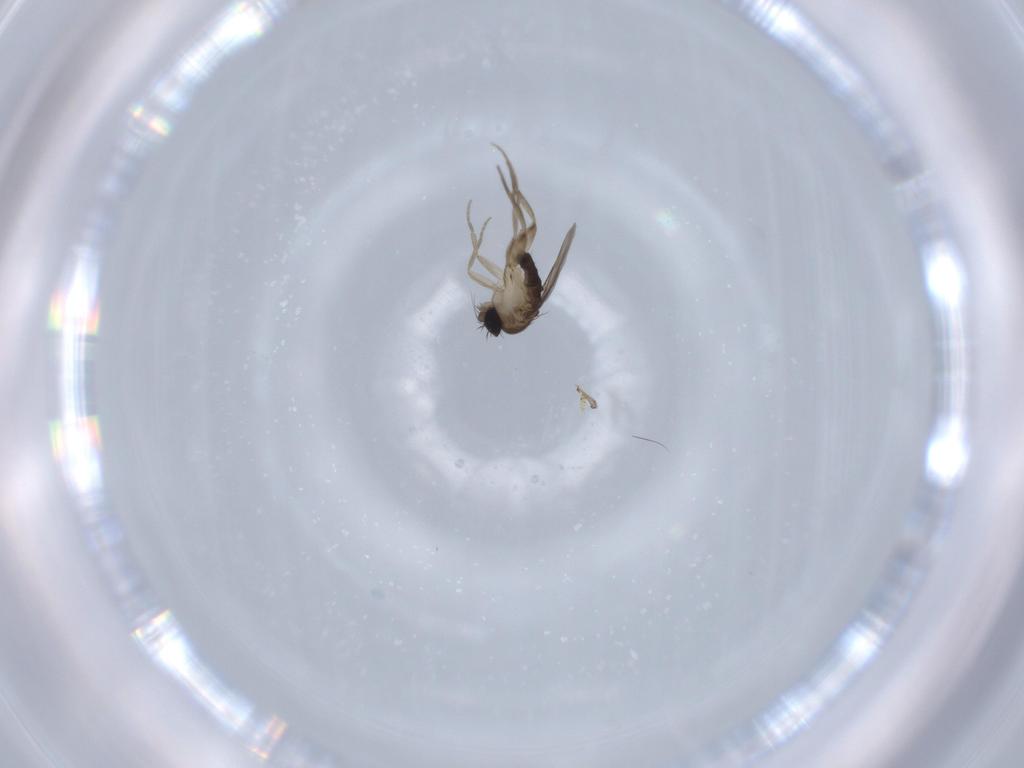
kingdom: Animalia
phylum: Arthropoda
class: Insecta
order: Diptera
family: Phoridae
